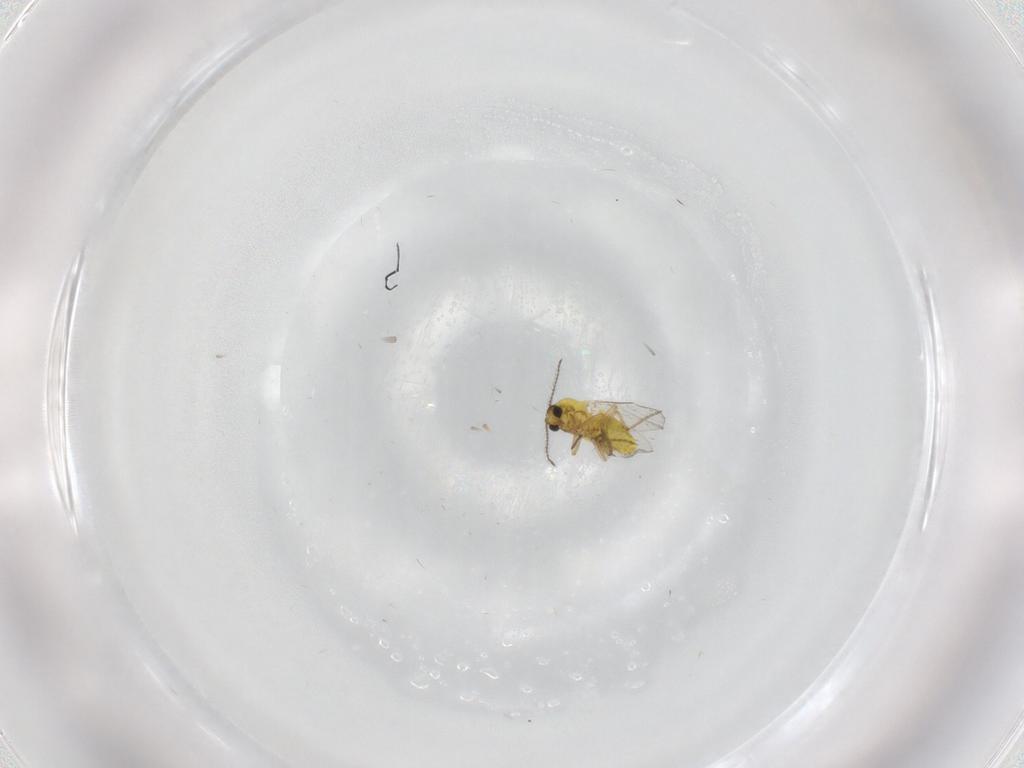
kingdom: Animalia
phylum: Arthropoda
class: Insecta
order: Diptera
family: Ceratopogonidae
